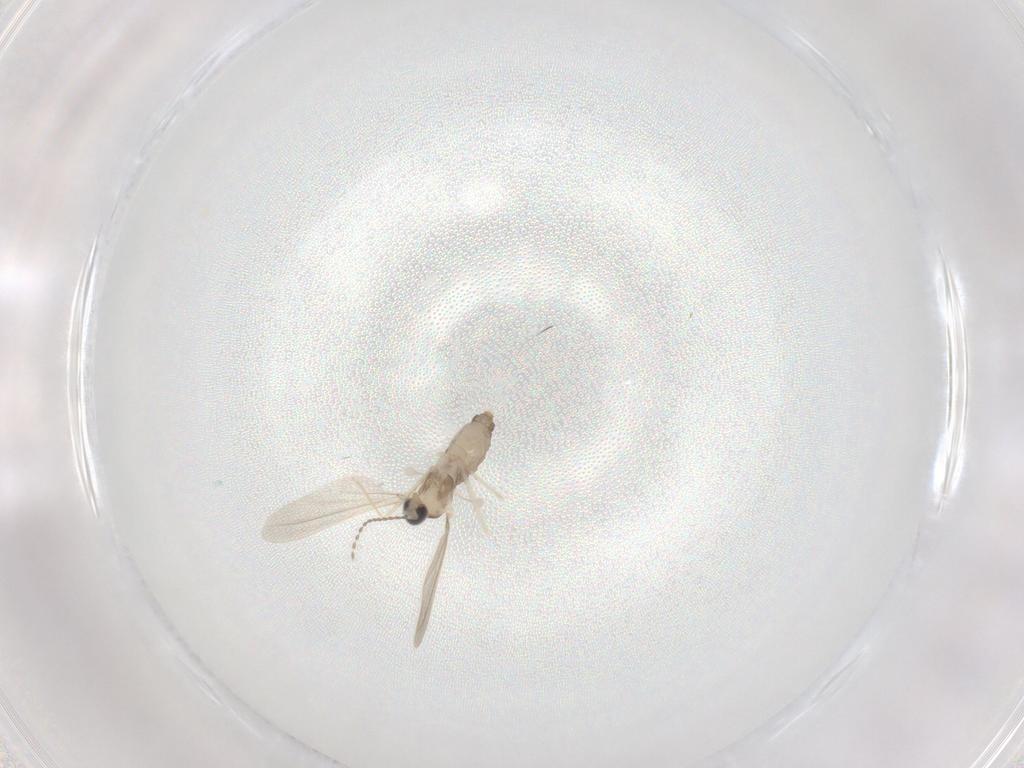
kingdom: Animalia
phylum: Arthropoda
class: Insecta
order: Diptera
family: Cecidomyiidae
